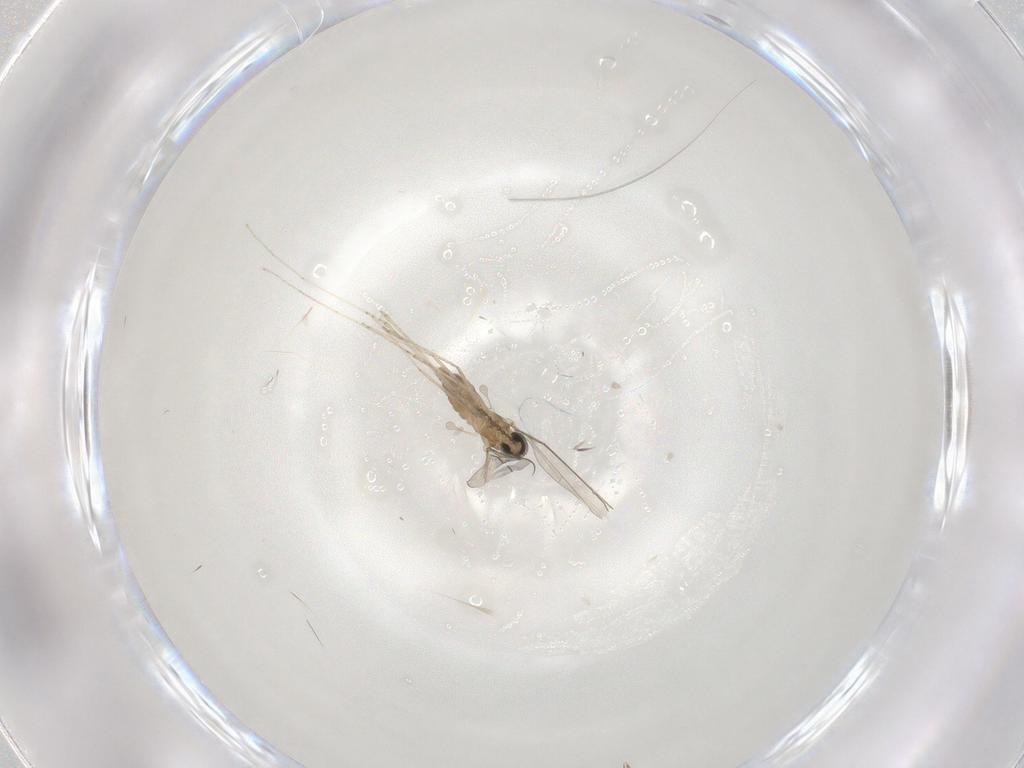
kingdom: Animalia
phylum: Arthropoda
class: Insecta
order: Diptera
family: Cecidomyiidae
